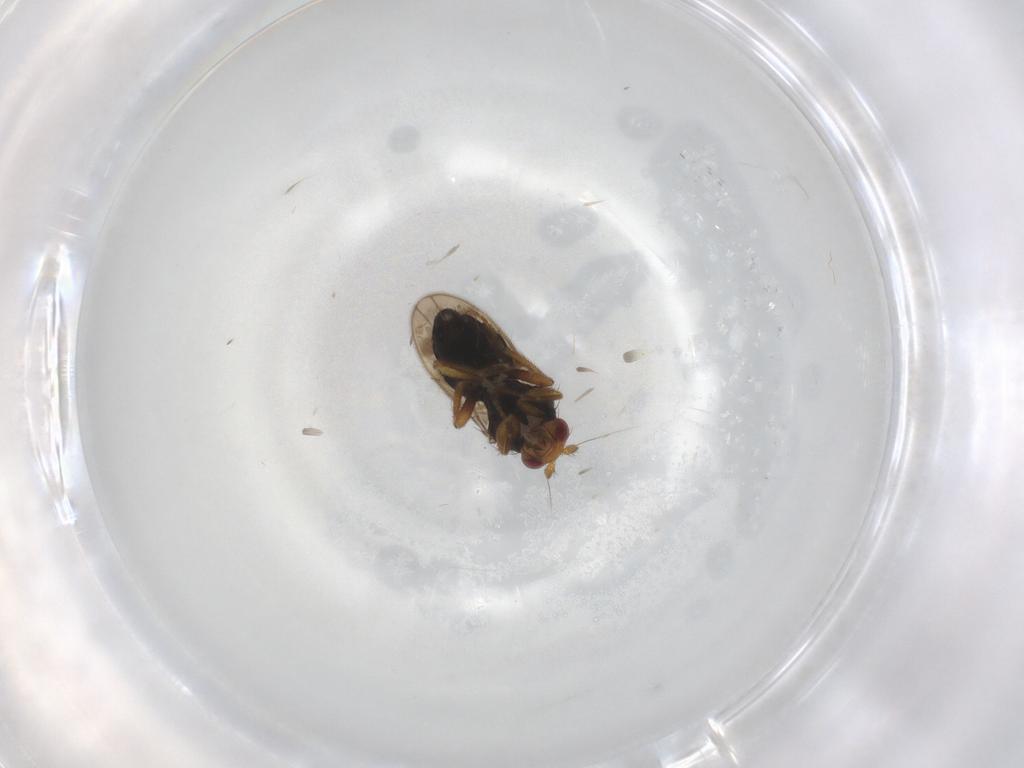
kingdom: Animalia
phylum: Arthropoda
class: Insecta
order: Diptera
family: Sphaeroceridae
